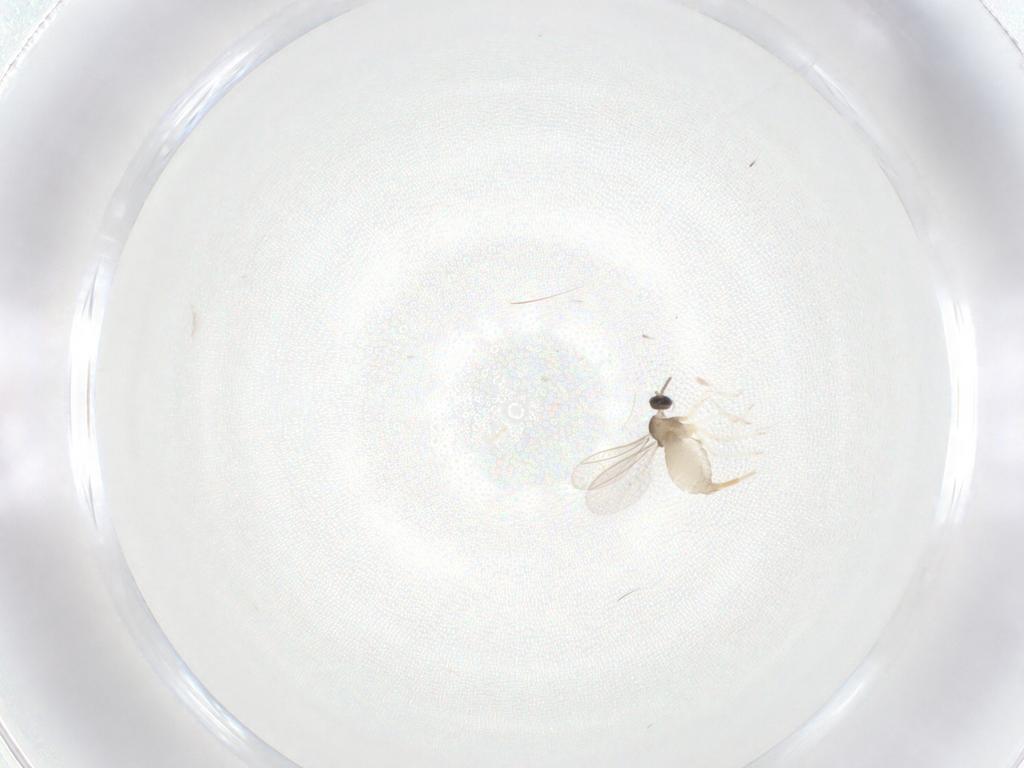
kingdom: Animalia
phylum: Arthropoda
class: Insecta
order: Diptera
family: Cecidomyiidae
